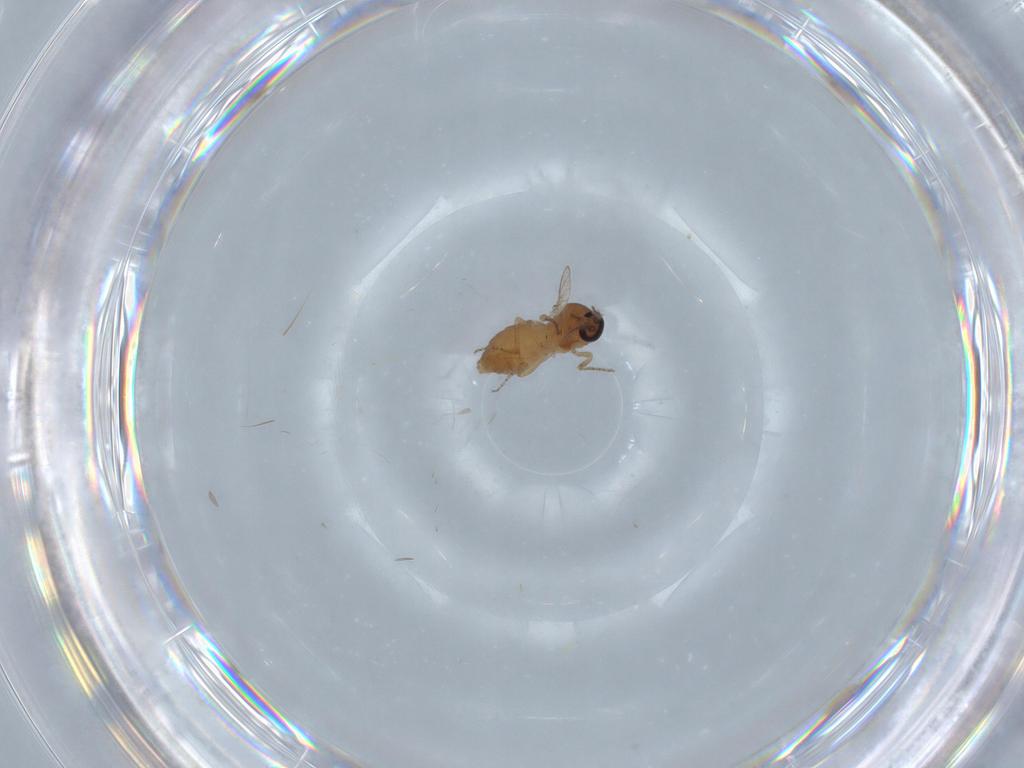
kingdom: Animalia
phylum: Arthropoda
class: Insecta
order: Diptera
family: Ceratopogonidae
